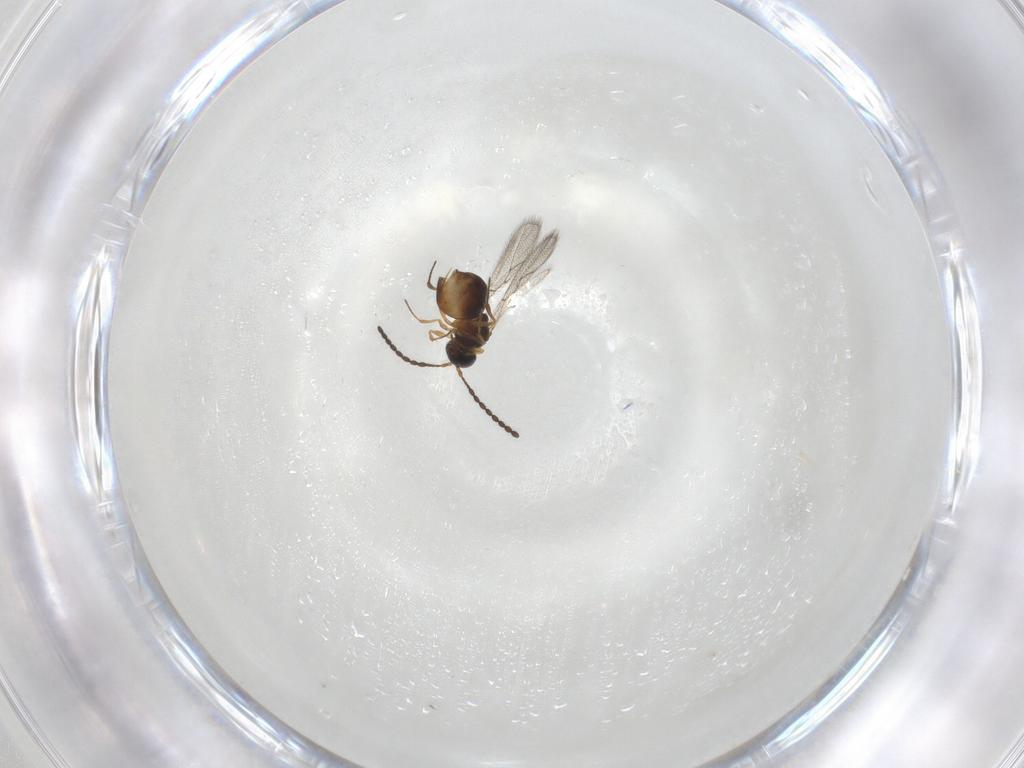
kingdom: Animalia
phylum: Arthropoda
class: Insecta
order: Hymenoptera
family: Figitidae
